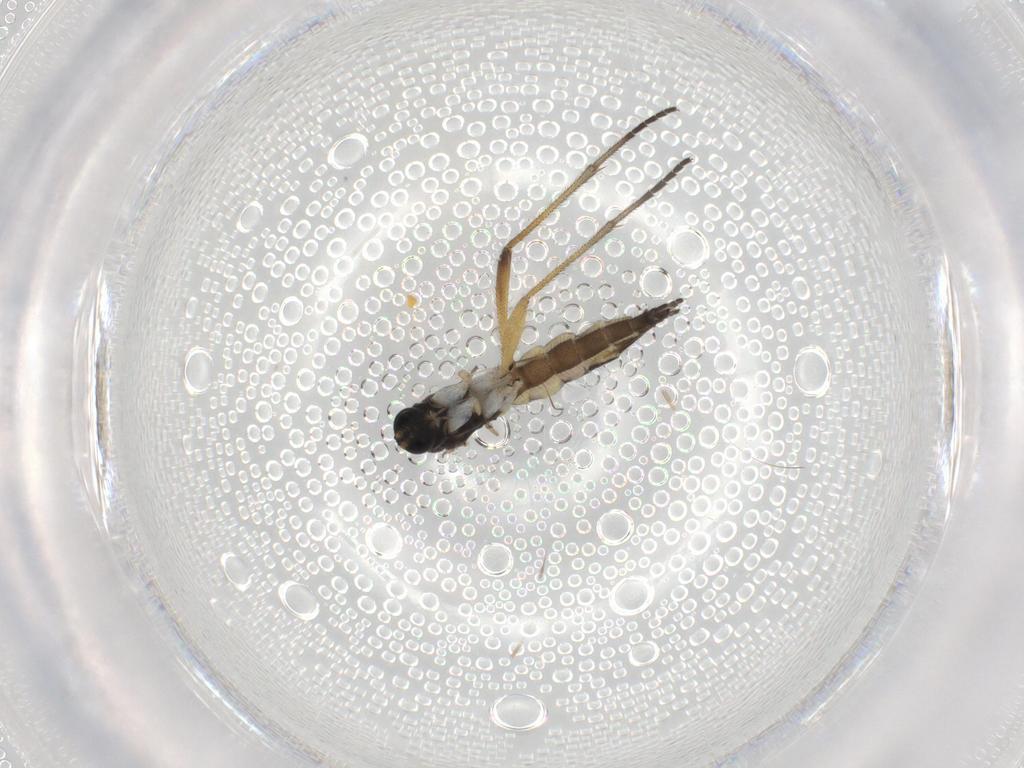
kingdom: Animalia
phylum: Arthropoda
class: Insecta
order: Diptera
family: Sciaridae
